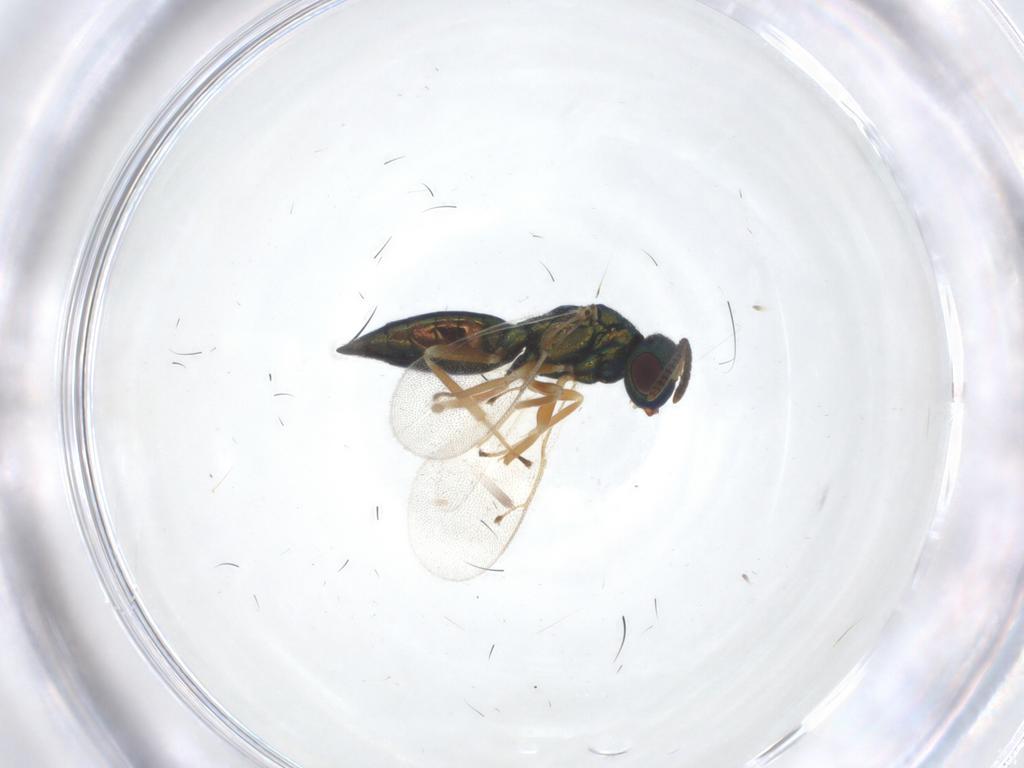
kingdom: Animalia
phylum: Arthropoda
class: Insecta
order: Hymenoptera
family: Pteromalidae
